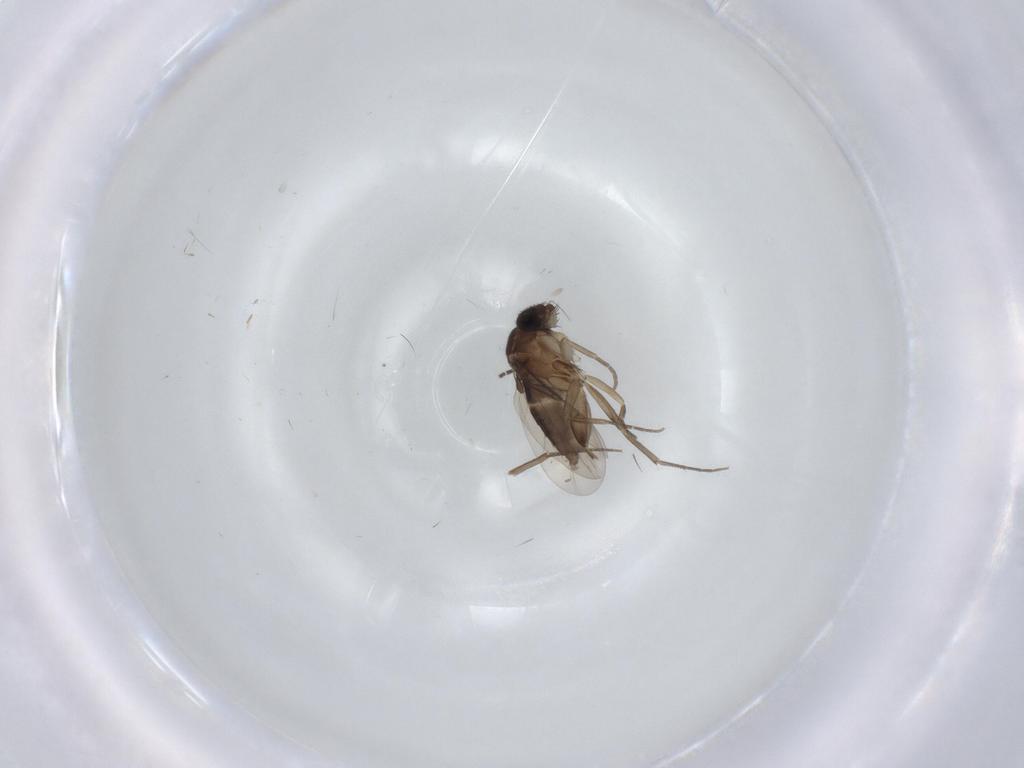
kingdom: Animalia
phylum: Arthropoda
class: Insecta
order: Diptera
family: Phoridae
